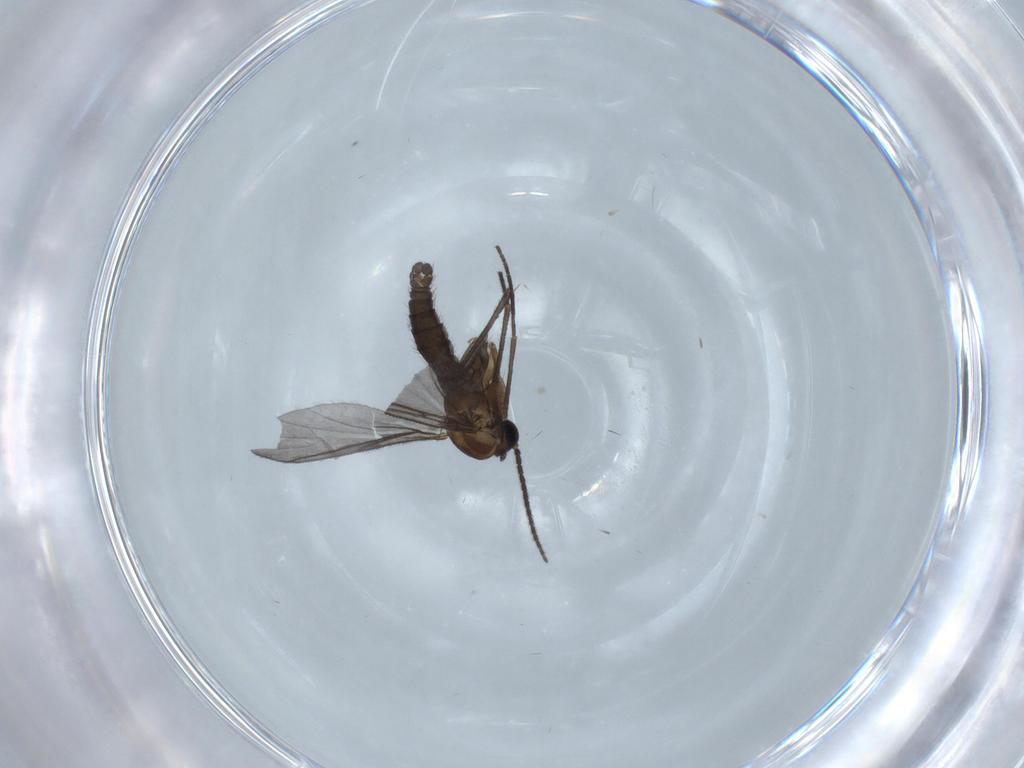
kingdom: Animalia
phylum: Arthropoda
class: Insecta
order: Diptera
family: Sciaridae
